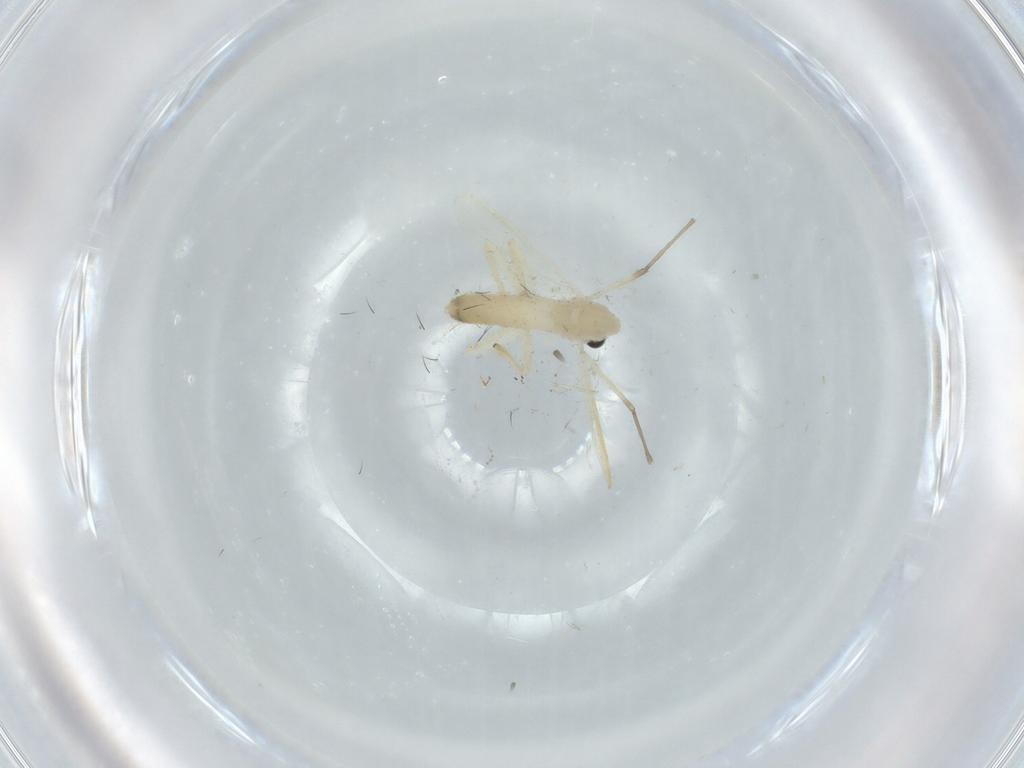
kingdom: Animalia
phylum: Arthropoda
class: Insecta
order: Diptera
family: Cecidomyiidae
